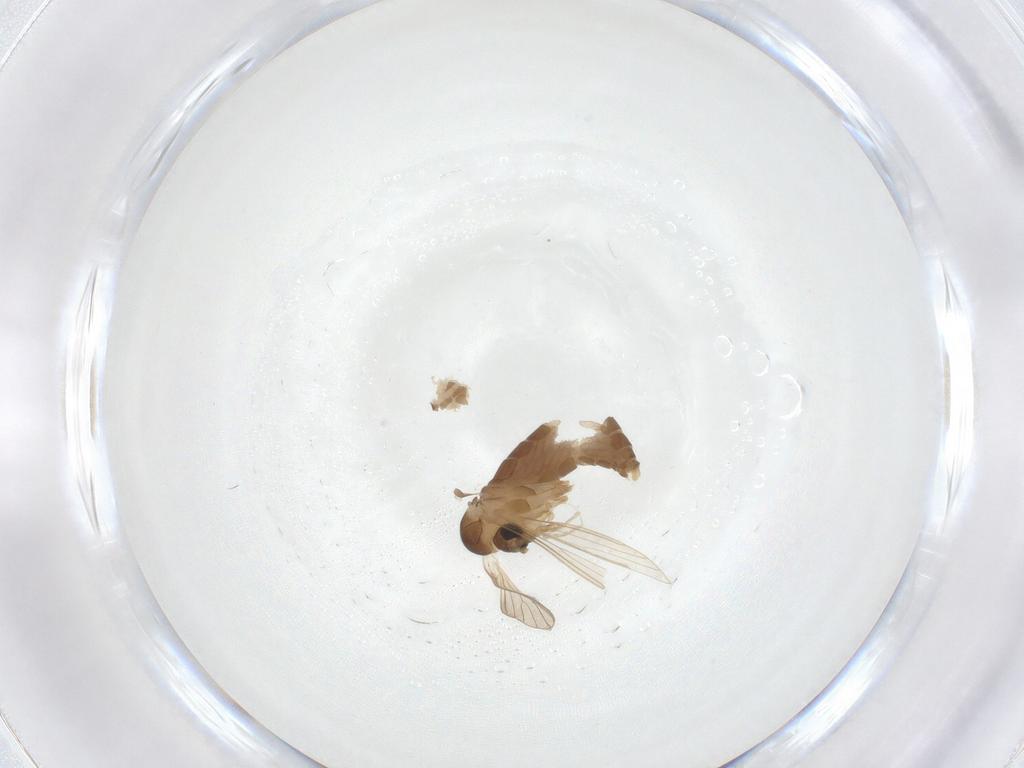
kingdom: Animalia
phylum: Arthropoda
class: Insecta
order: Diptera
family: Psychodidae
